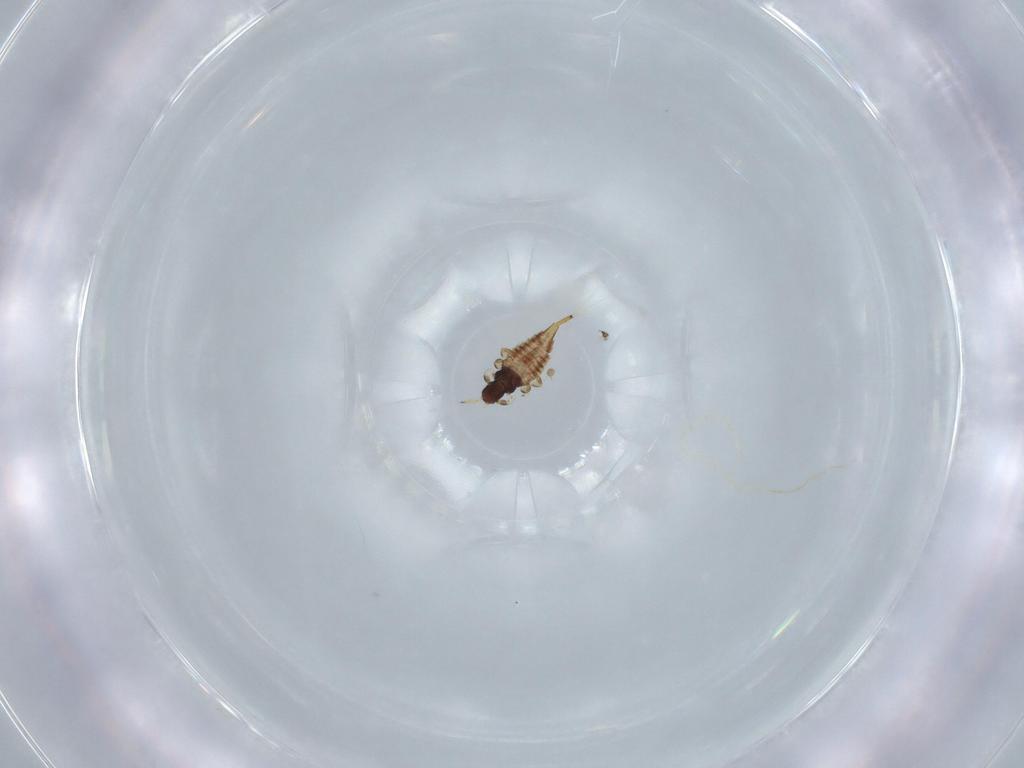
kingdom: Animalia
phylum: Arthropoda
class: Insecta
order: Thysanoptera
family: Phlaeothripidae
